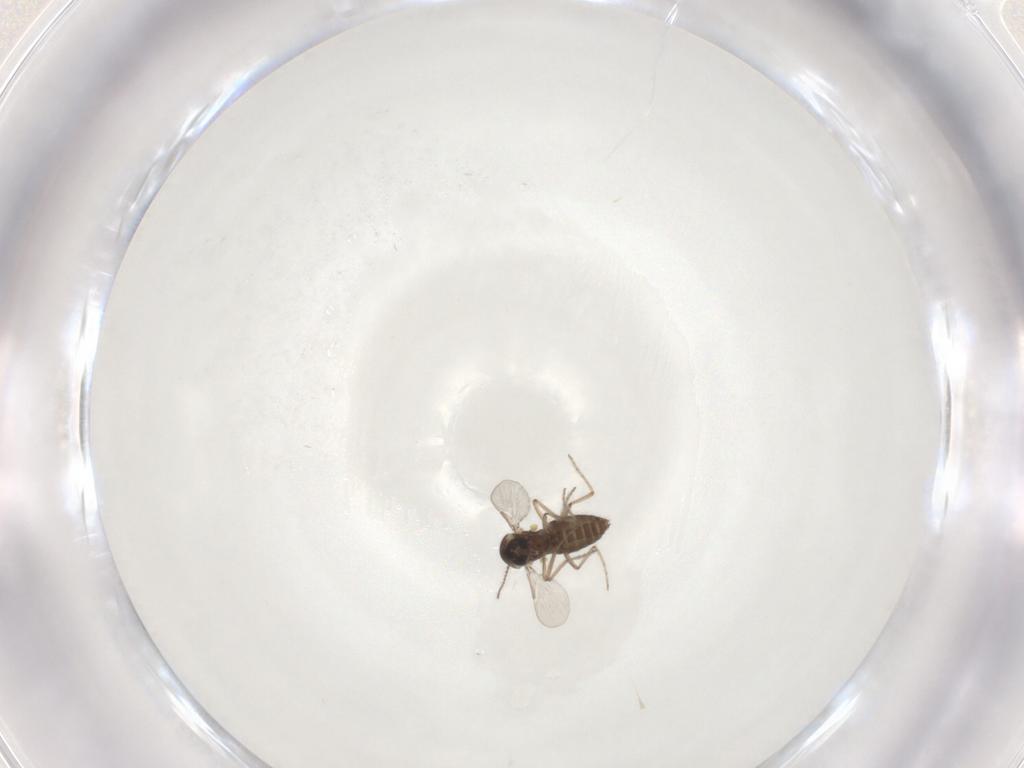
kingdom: Animalia
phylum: Arthropoda
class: Insecta
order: Diptera
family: Ceratopogonidae
